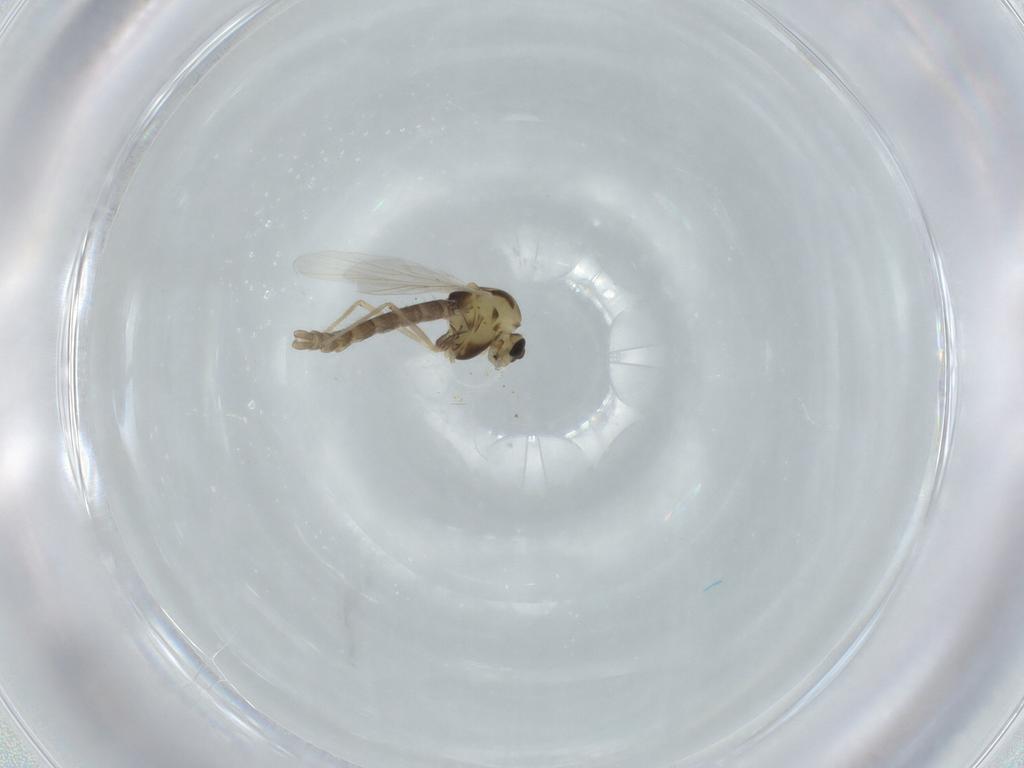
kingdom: Animalia
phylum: Arthropoda
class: Insecta
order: Diptera
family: Chironomidae
